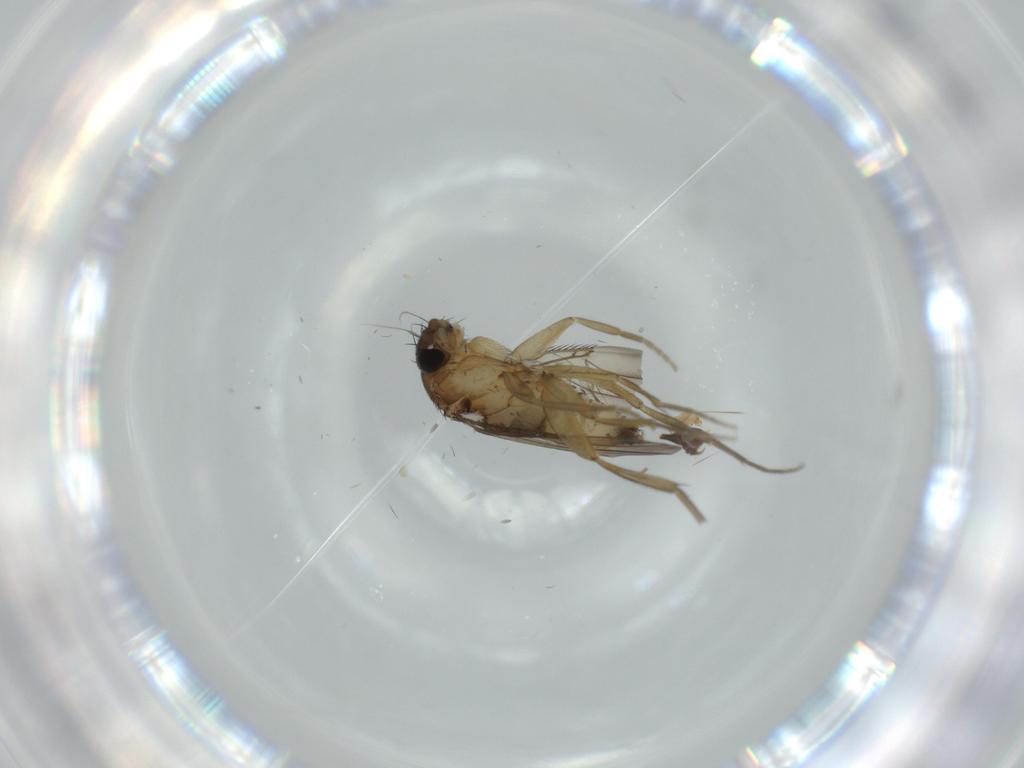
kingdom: Animalia
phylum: Arthropoda
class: Insecta
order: Diptera
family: Phoridae
